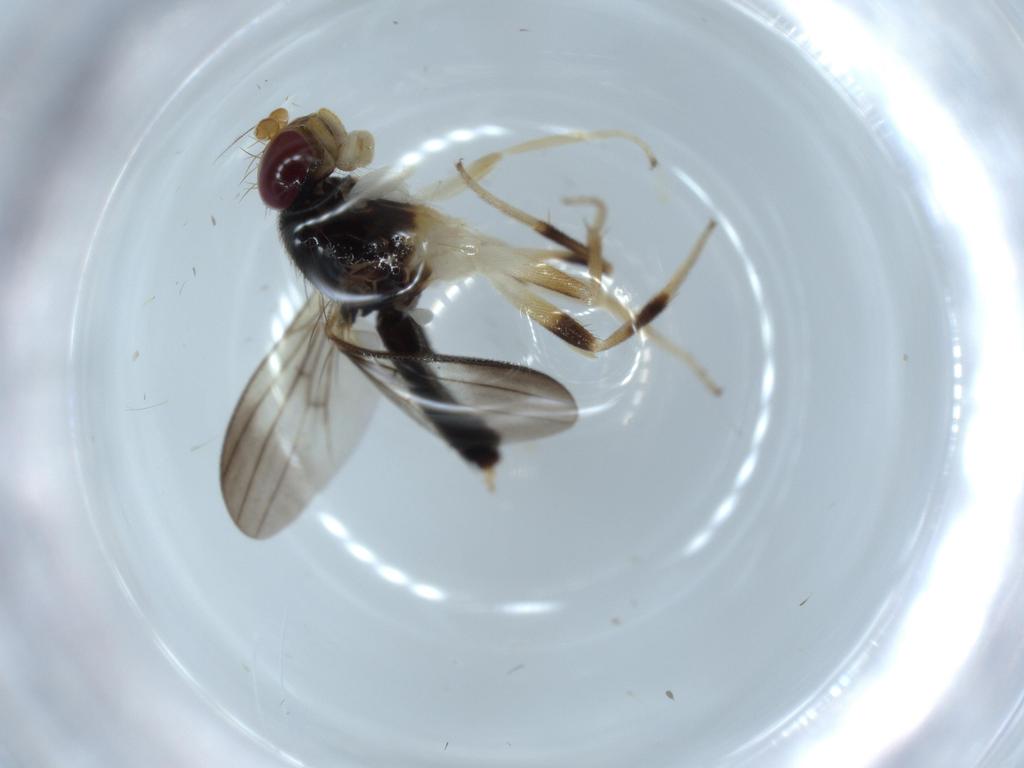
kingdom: Animalia
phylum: Arthropoda
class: Insecta
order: Diptera
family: Clusiidae
